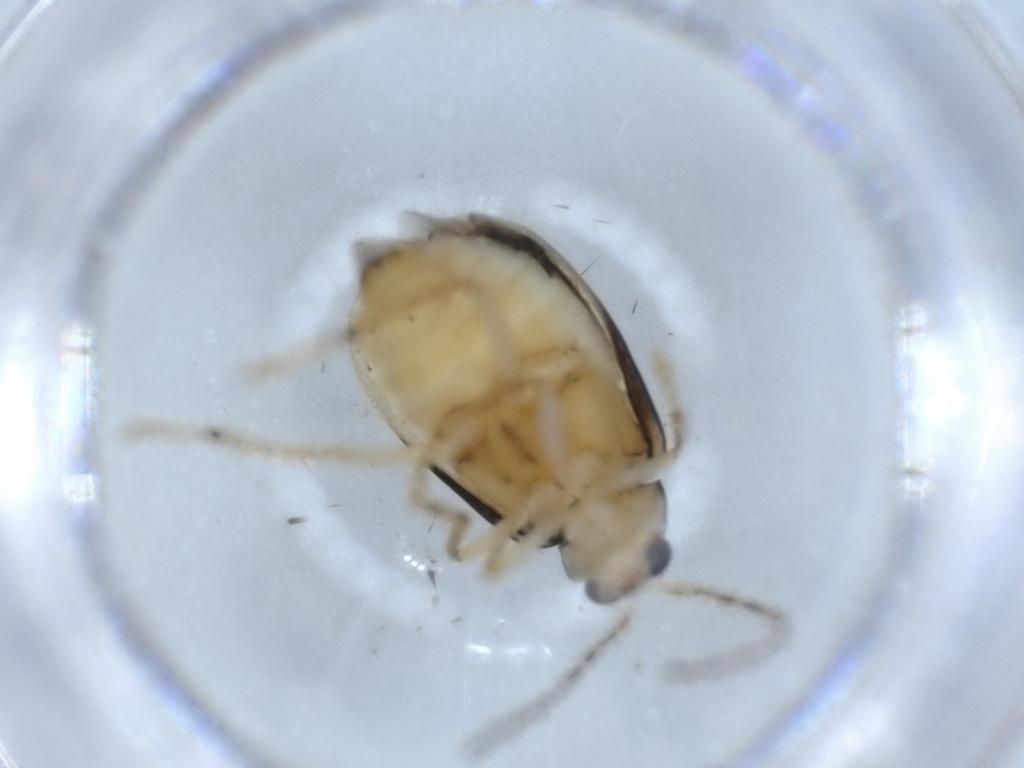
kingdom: Animalia
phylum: Arthropoda
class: Insecta
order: Coleoptera
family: Chrysomelidae
